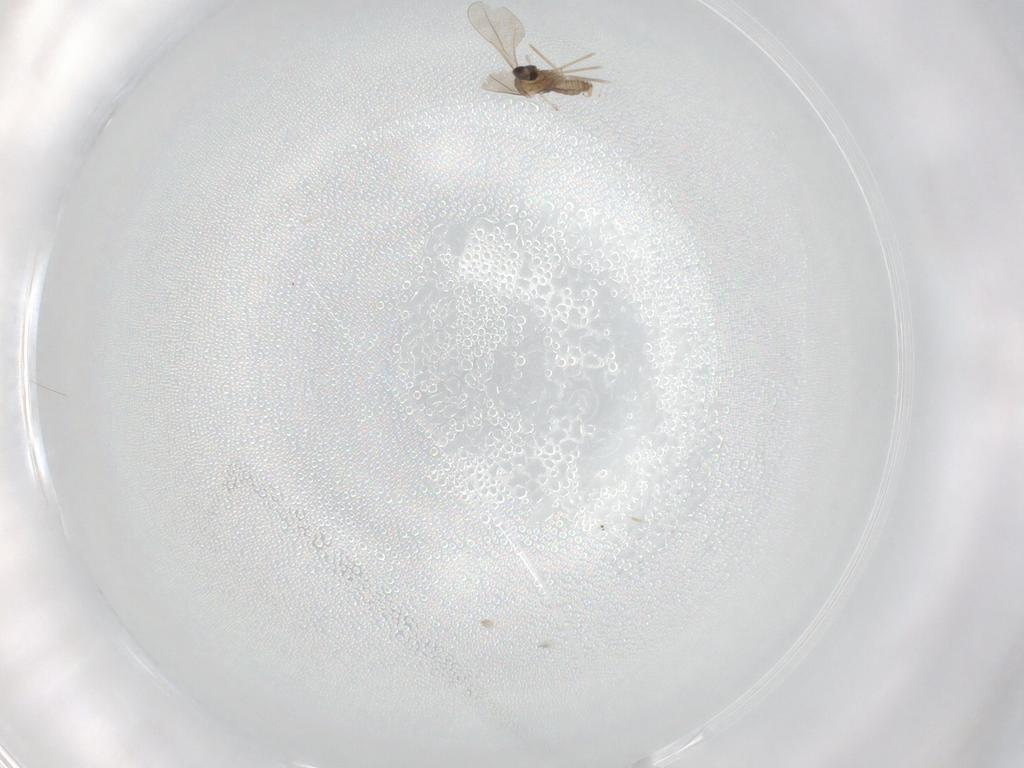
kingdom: Animalia
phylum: Arthropoda
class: Insecta
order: Diptera
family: Cecidomyiidae
